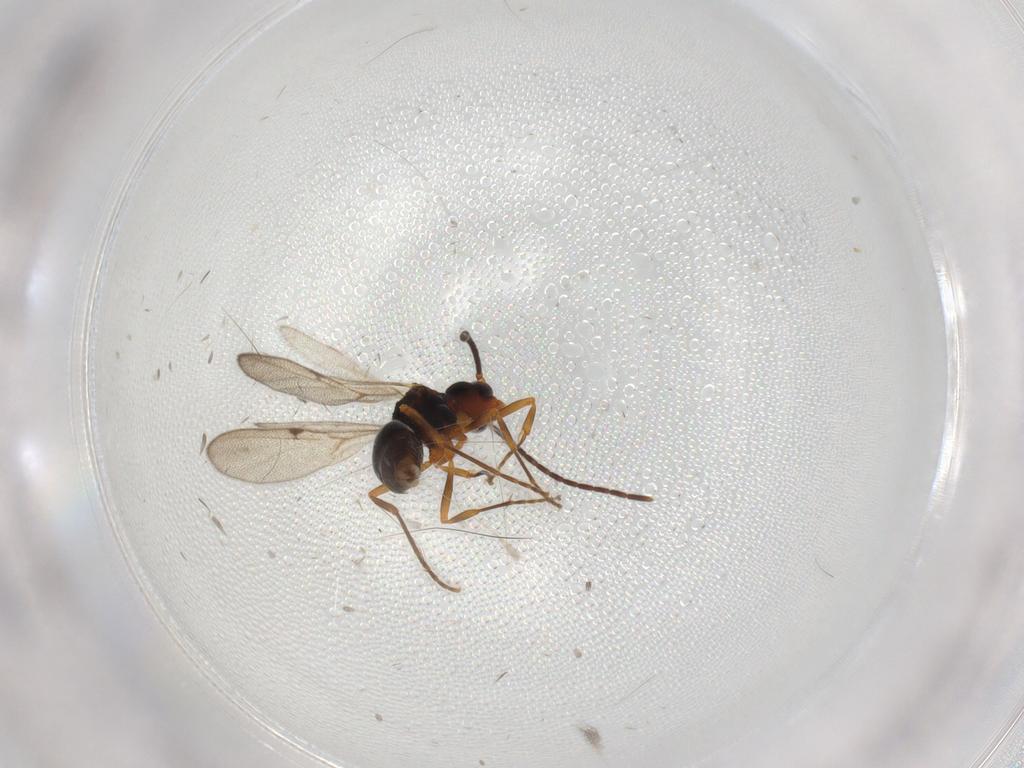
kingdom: Animalia
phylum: Arthropoda
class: Insecta
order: Hymenoptera
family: Formicidae
